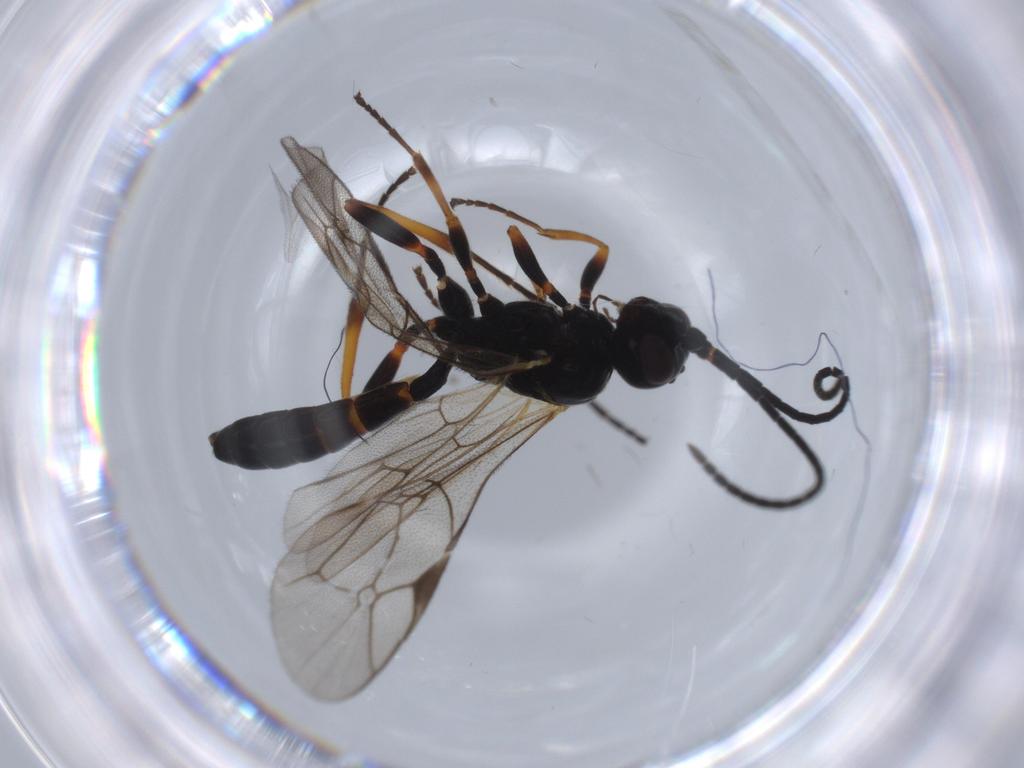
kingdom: Animalia
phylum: Arthropoda
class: Insecta
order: Hymenoptera
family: Ichneumonidae
